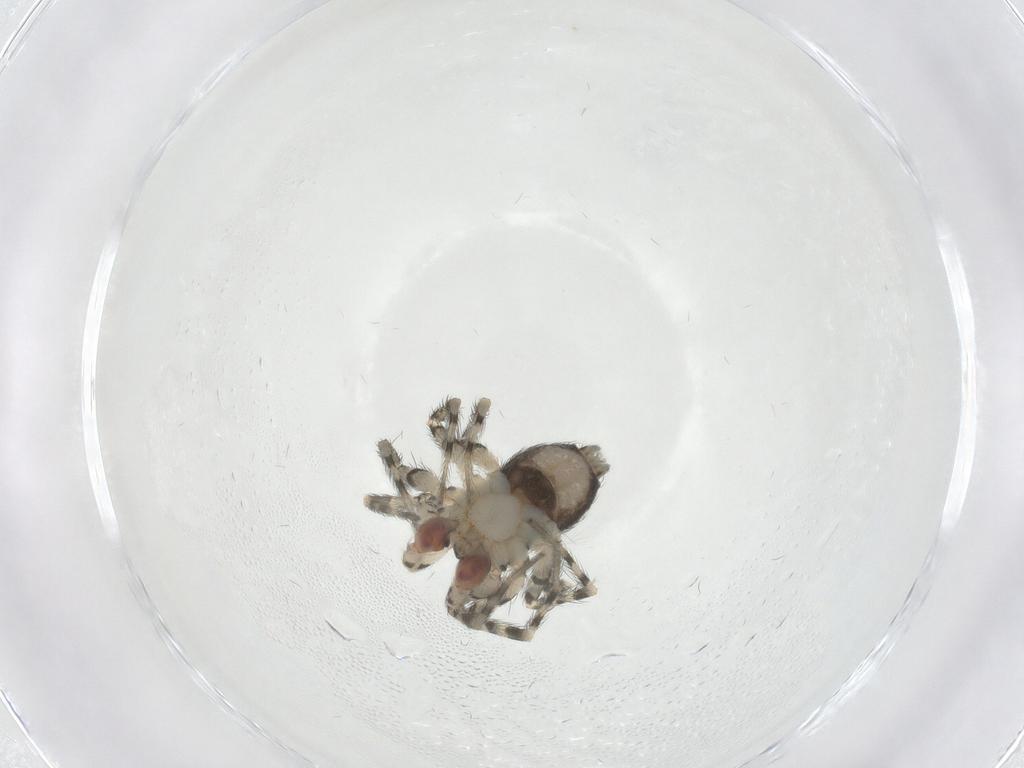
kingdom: Animalia
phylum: Arthropoda
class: Arachnida
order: Araneae
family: Oecobiidae
